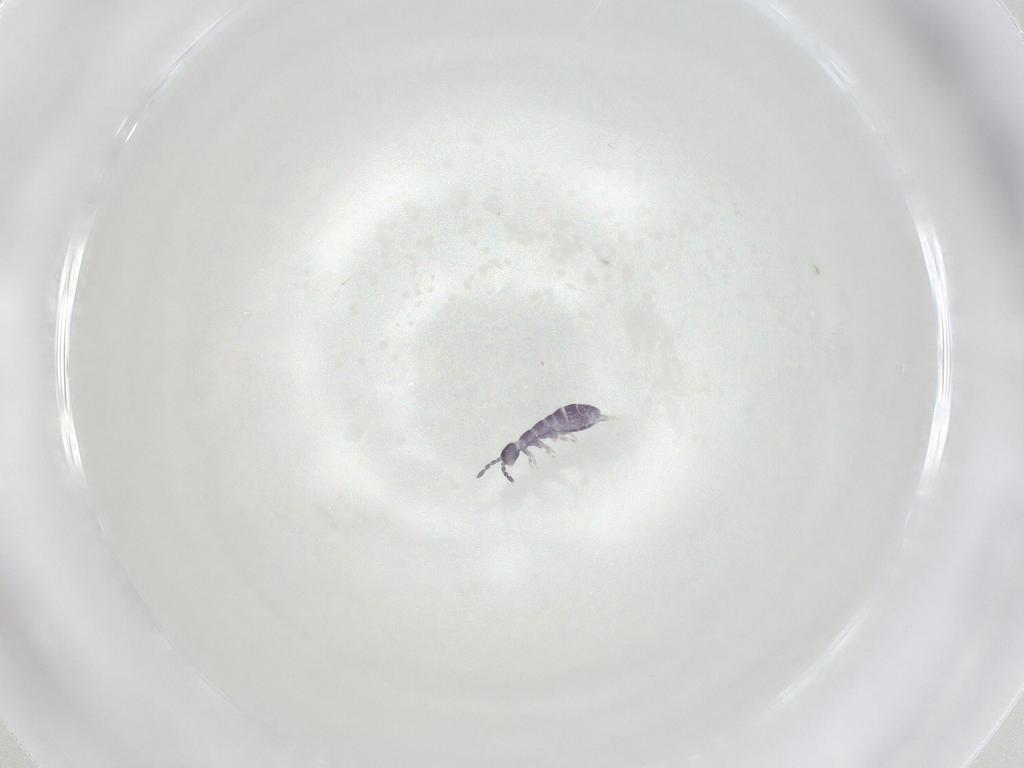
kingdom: Animalia
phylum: Arthropoda
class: Collembola
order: Entomobryomorpha
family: Isotomidae
